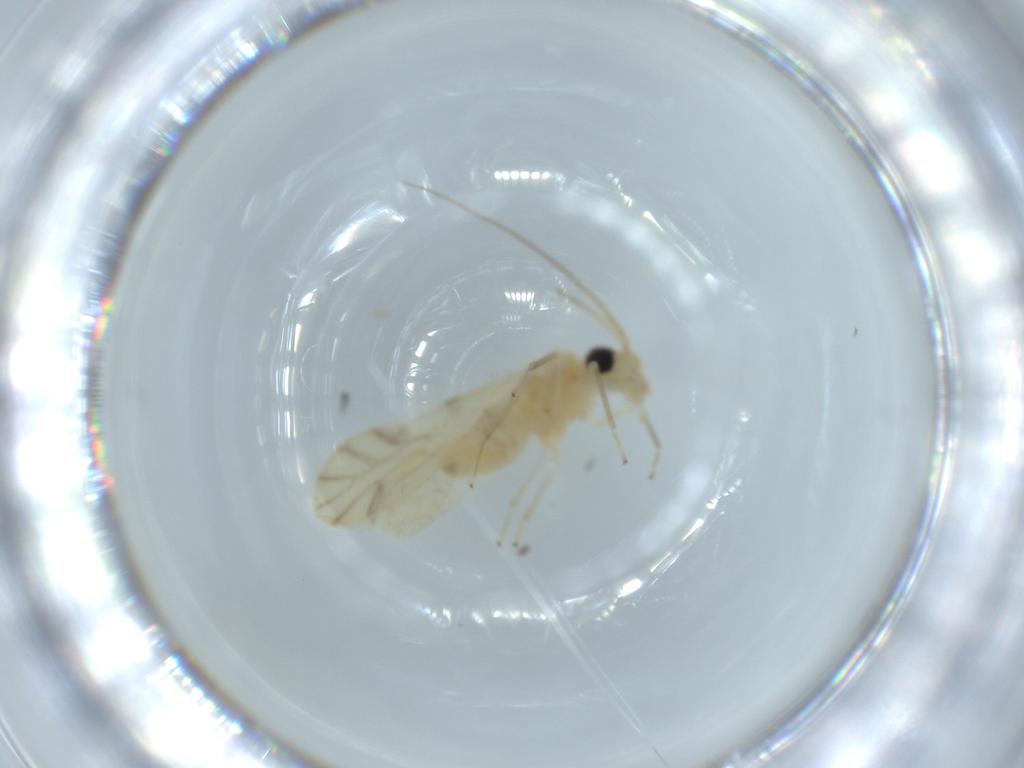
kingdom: Animalia
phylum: Arthropoda
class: Insecta
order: Psocodea
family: Caeciliusidae
